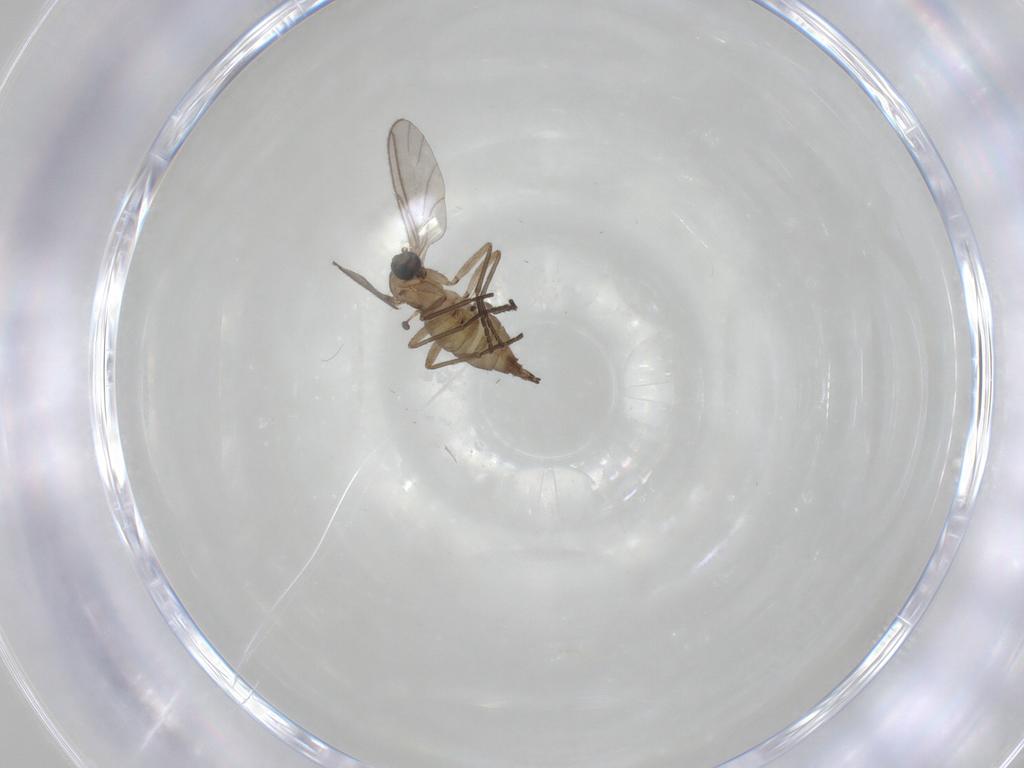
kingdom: Animalia
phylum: Arthropoda
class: Insecta
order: Diptera
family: Sciaridae
